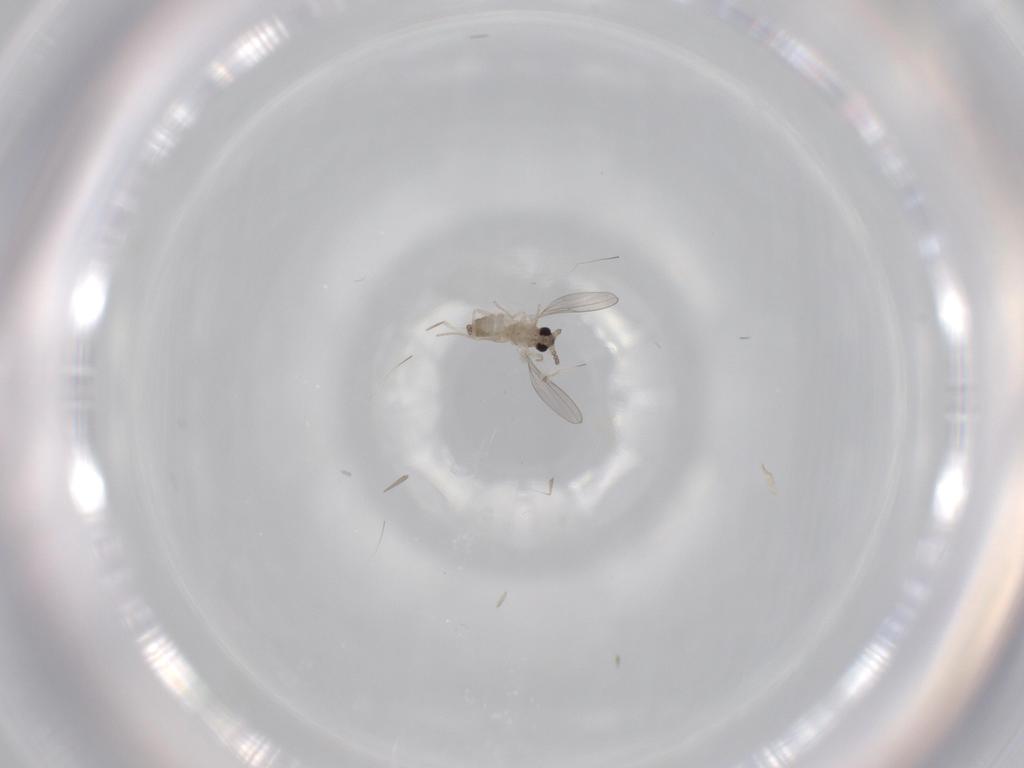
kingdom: Animalia
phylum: Arthropoda
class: Insecta
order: Diptera
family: Cecidomyiidae
